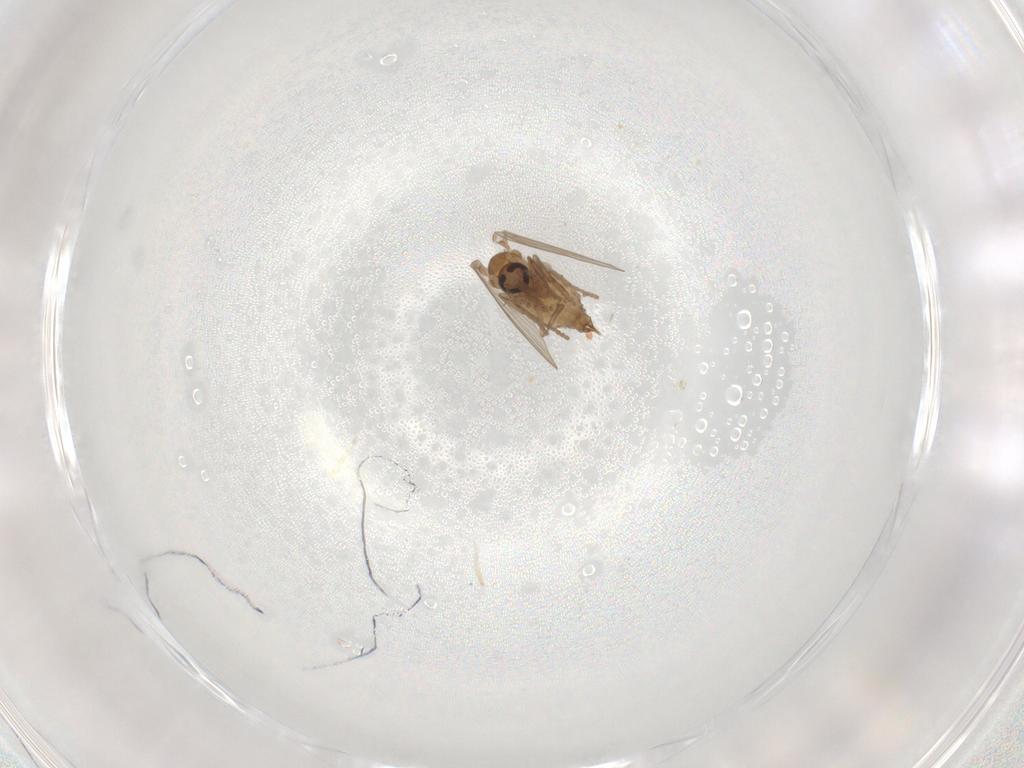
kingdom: Animalia
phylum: Arthropoda
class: Insecta
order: Diptera
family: Psychodidae
